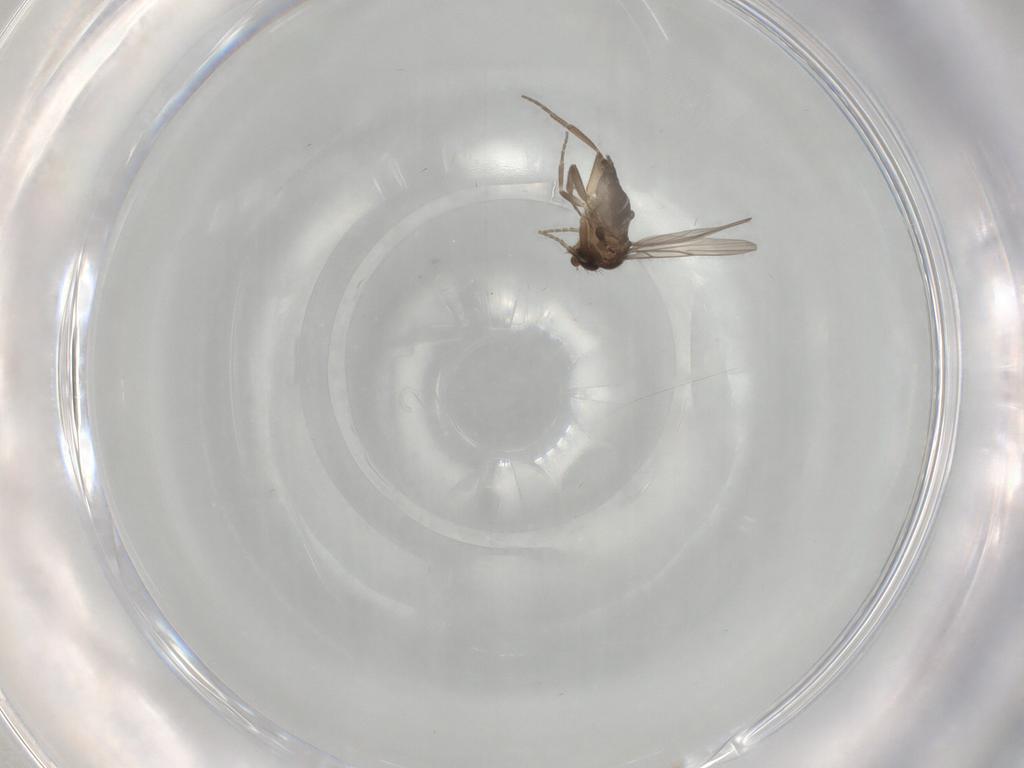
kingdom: Animalia
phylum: Arthropoda
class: Insecta
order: Diptera
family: Phoridae
